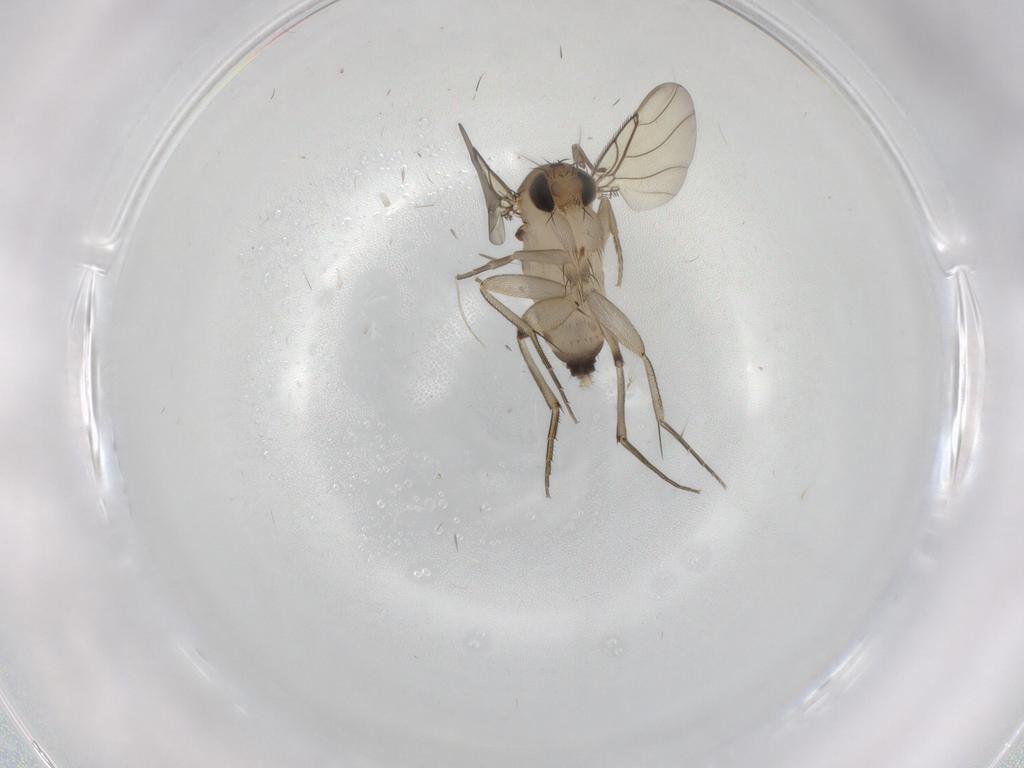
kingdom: Animalia
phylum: Arthropoda
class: Insecta
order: Diptera
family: Phoridae
